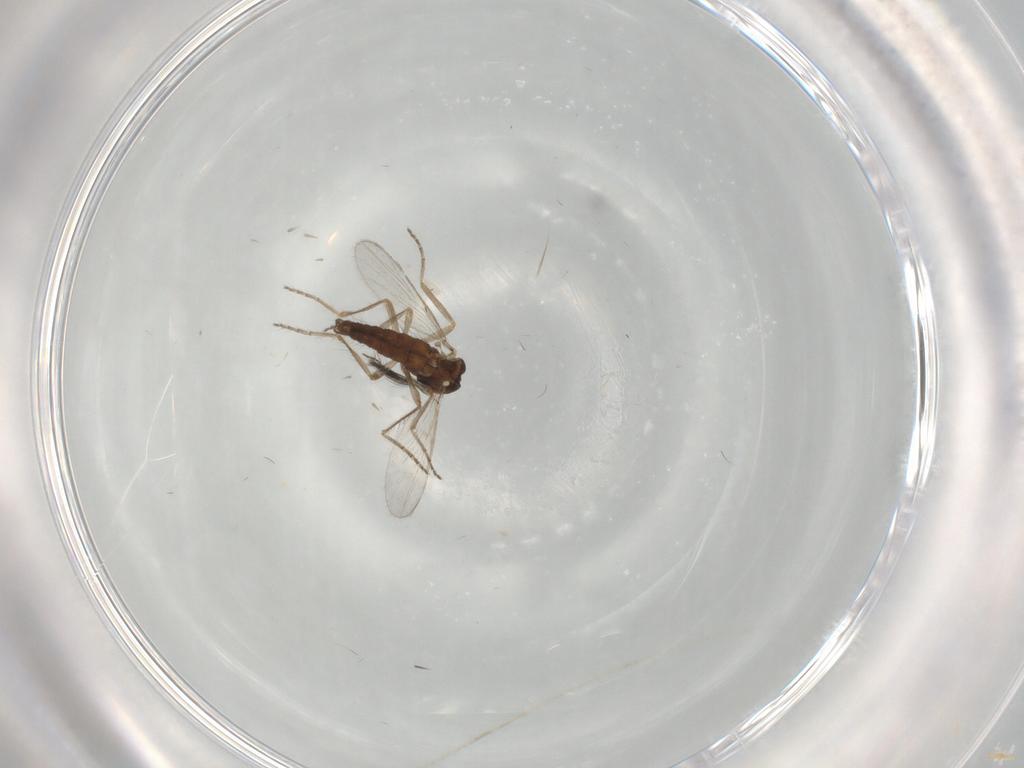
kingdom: Animalia
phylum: Arthropoda
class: Insecta
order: Diptera
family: Ceratopogonidae
